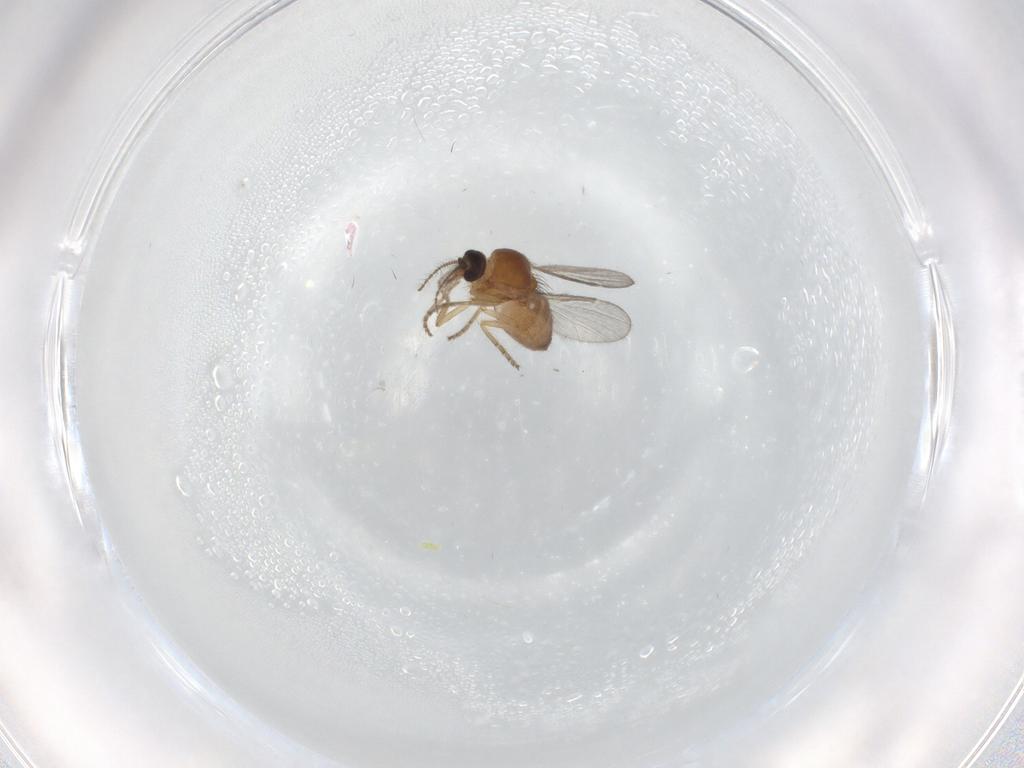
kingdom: Animalia
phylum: Arthropoda
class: Insecta
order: Diptera
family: Ceratopogonidae
